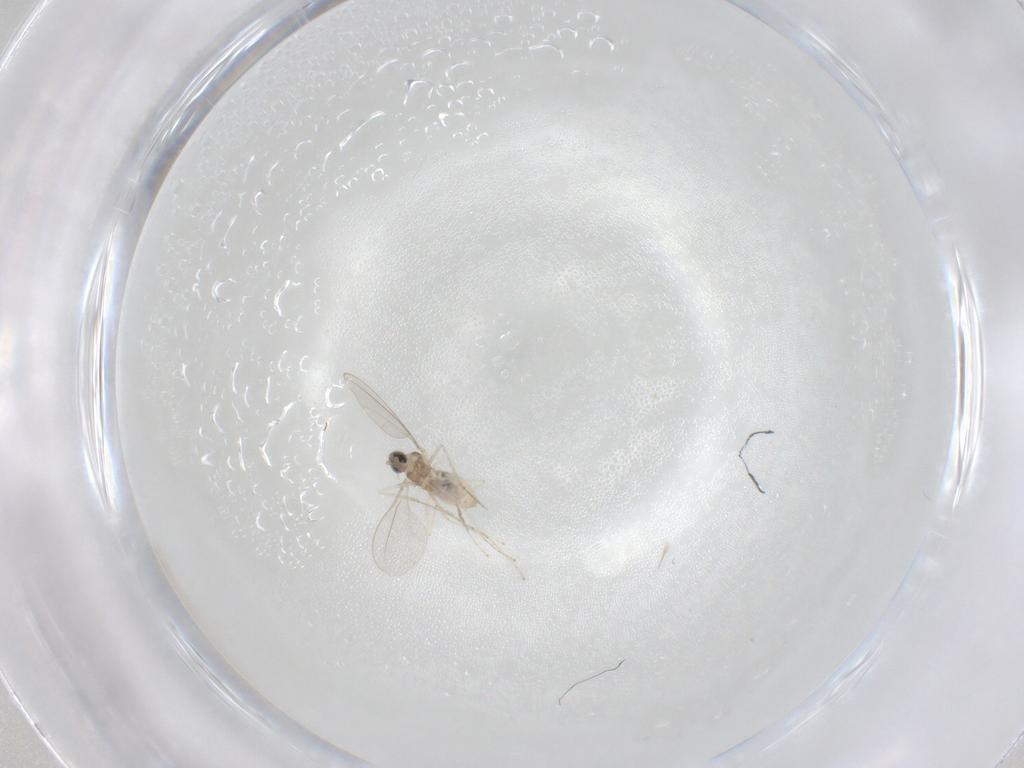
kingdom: Animalia
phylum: Arthropoda
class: Insecta
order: Diptera
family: Cecidomyiidae
